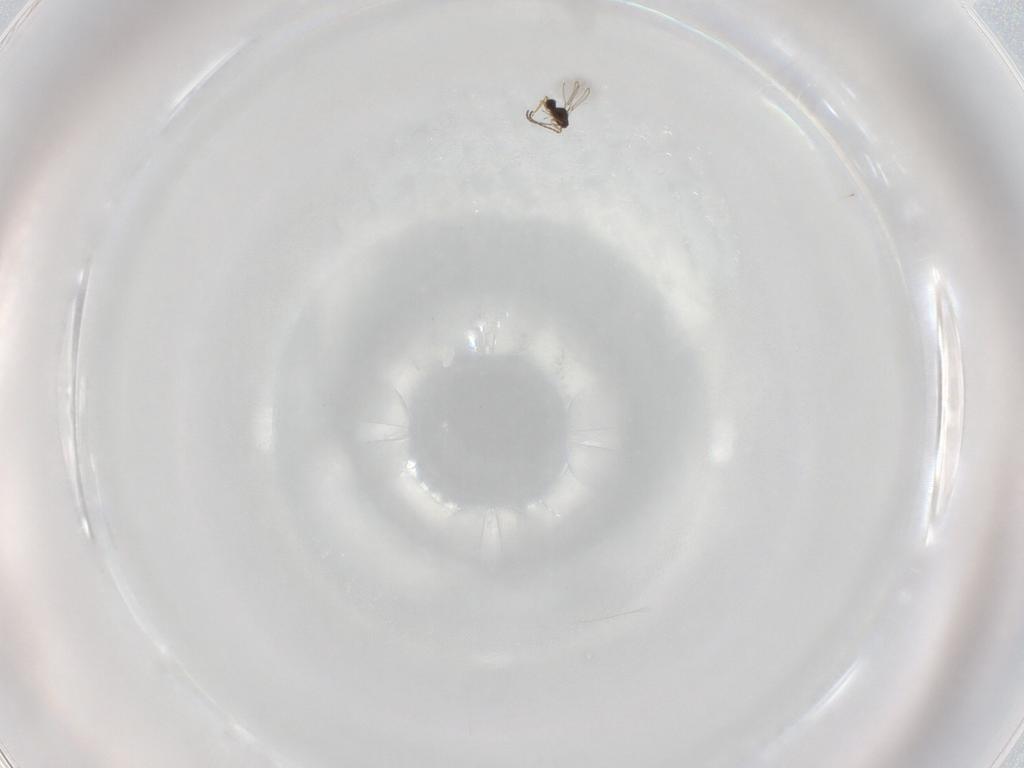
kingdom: Animalia
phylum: Arthropoda
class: Insecta
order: Hymenoptera
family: Mymaridae
